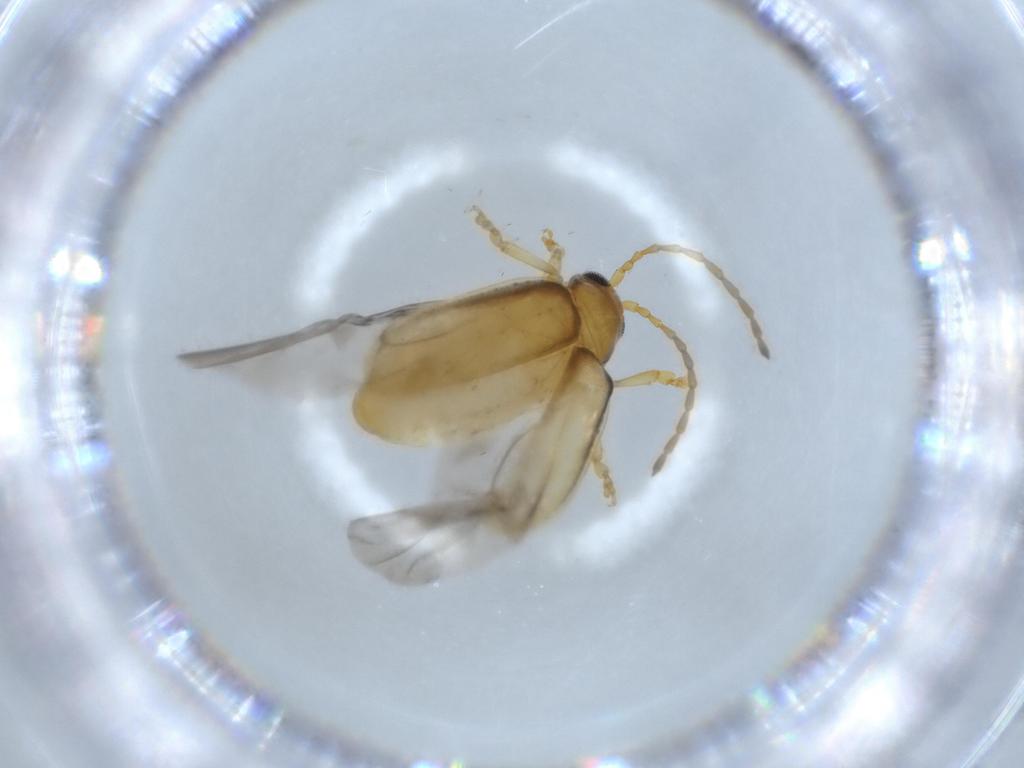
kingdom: Animalia
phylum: Arthropoda
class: Insecta
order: Coleoptera
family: Chrysomelidae
